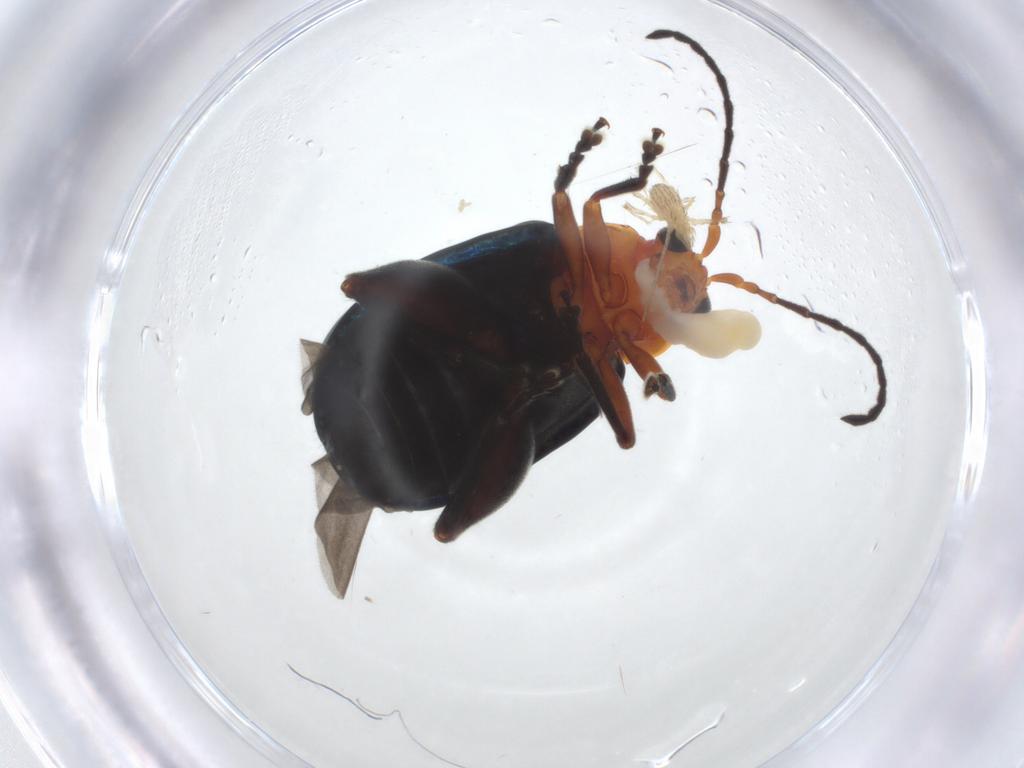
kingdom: Animalia
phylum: Arthropoda
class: Insecta
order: Coleoptera
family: Chrysomelidae
